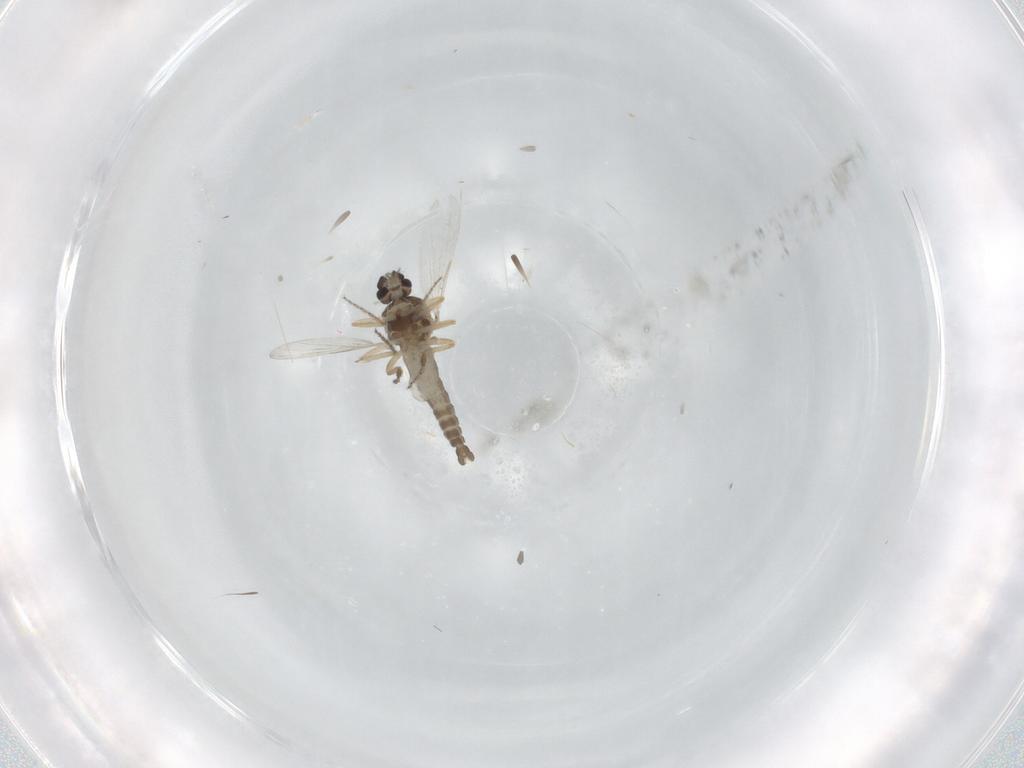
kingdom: Animalia
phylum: Arthropoda
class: Insecta
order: Diptera
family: Ceratopogonidae
